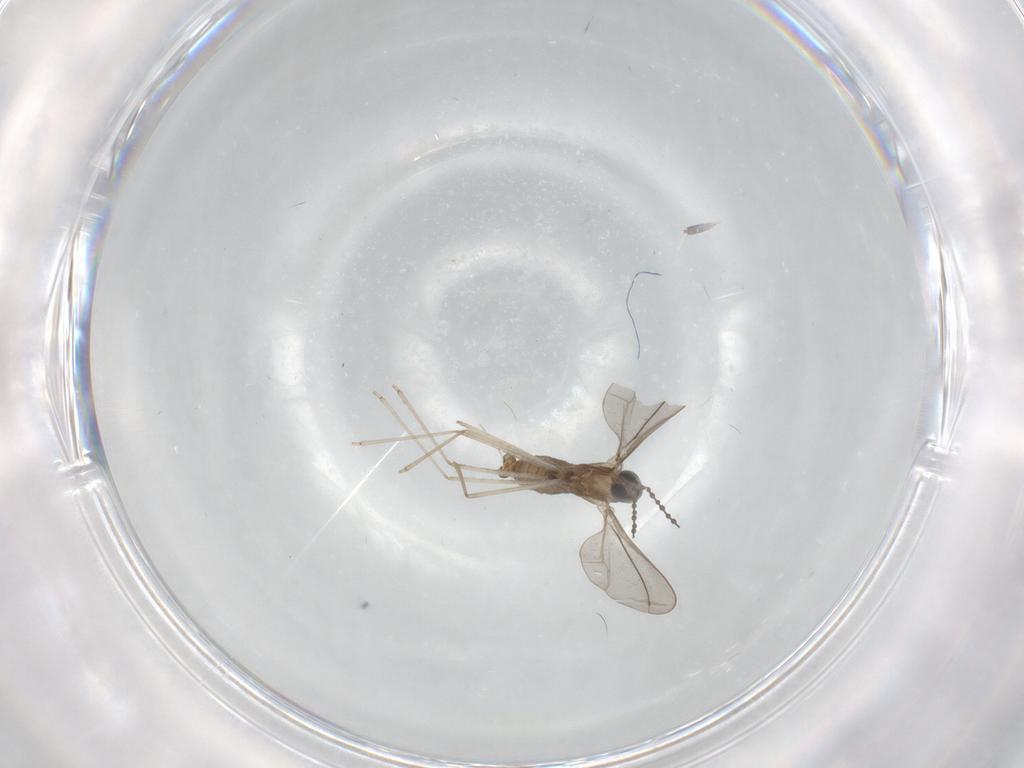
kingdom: Animalia
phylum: Arthropoda
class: Insecta
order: Diptera
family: Cecidomyiidae
